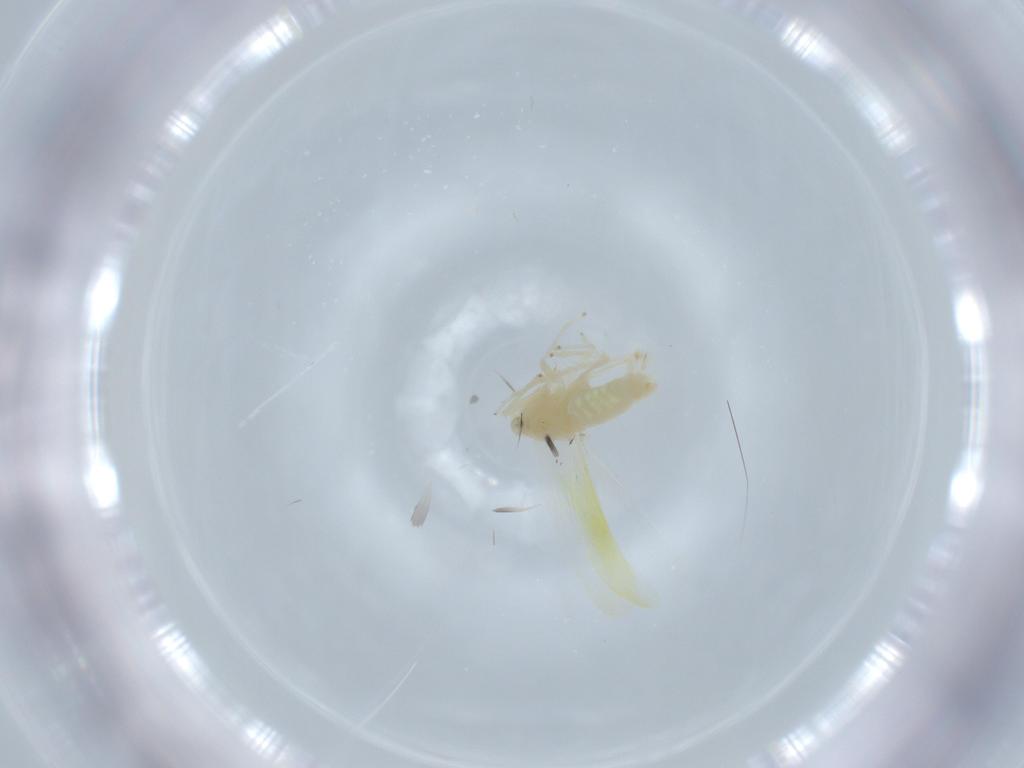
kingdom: Animalia
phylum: Arthropoda
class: Insecta
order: Hemiptera
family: Cicadellidae
